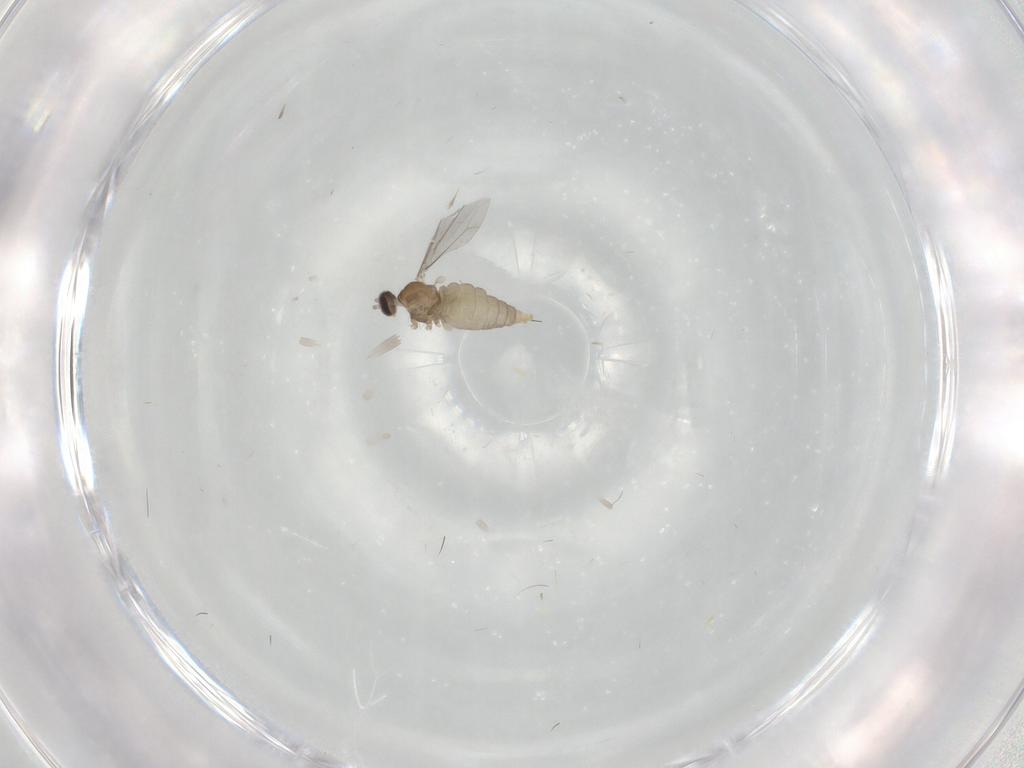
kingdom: Animalia
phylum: Arthropoda
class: Insecta
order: Diptera
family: Cecidomyiidae
